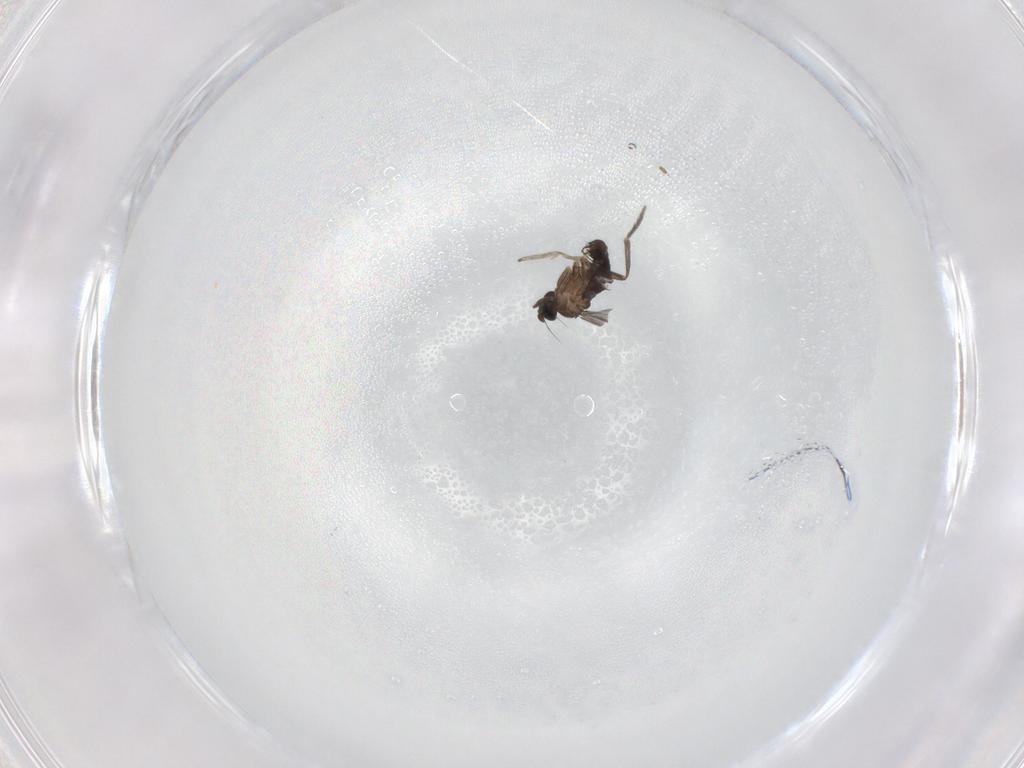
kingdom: Animalia
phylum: Arthropoda
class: Insecta
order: Diptera
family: Phoridae
